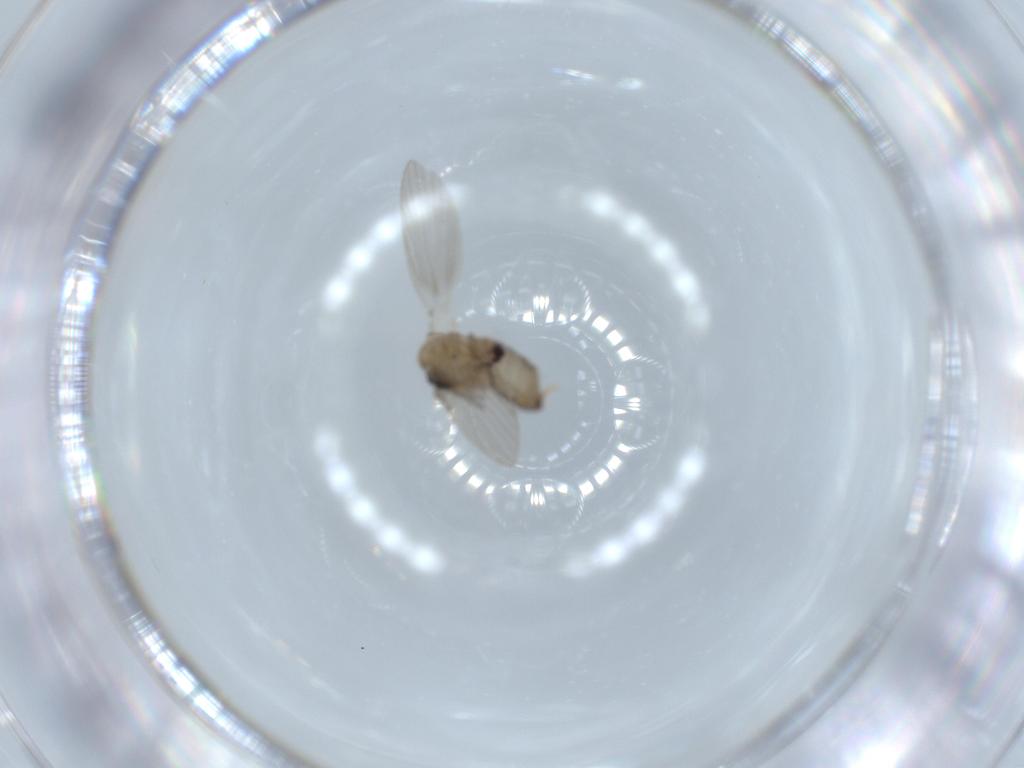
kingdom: Animalia
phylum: Arthropoda
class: Insecta
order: Diptera
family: Psychodidae
